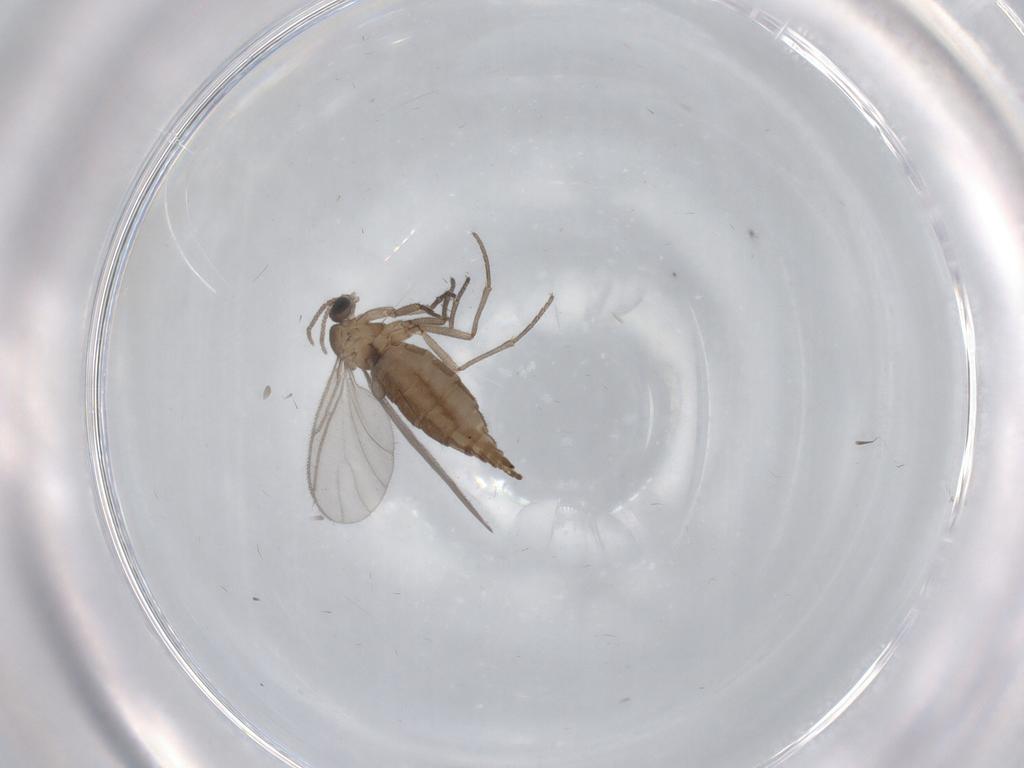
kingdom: Animalia
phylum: Arthropoda
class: Insecta
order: Diptera
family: Sciaridae
